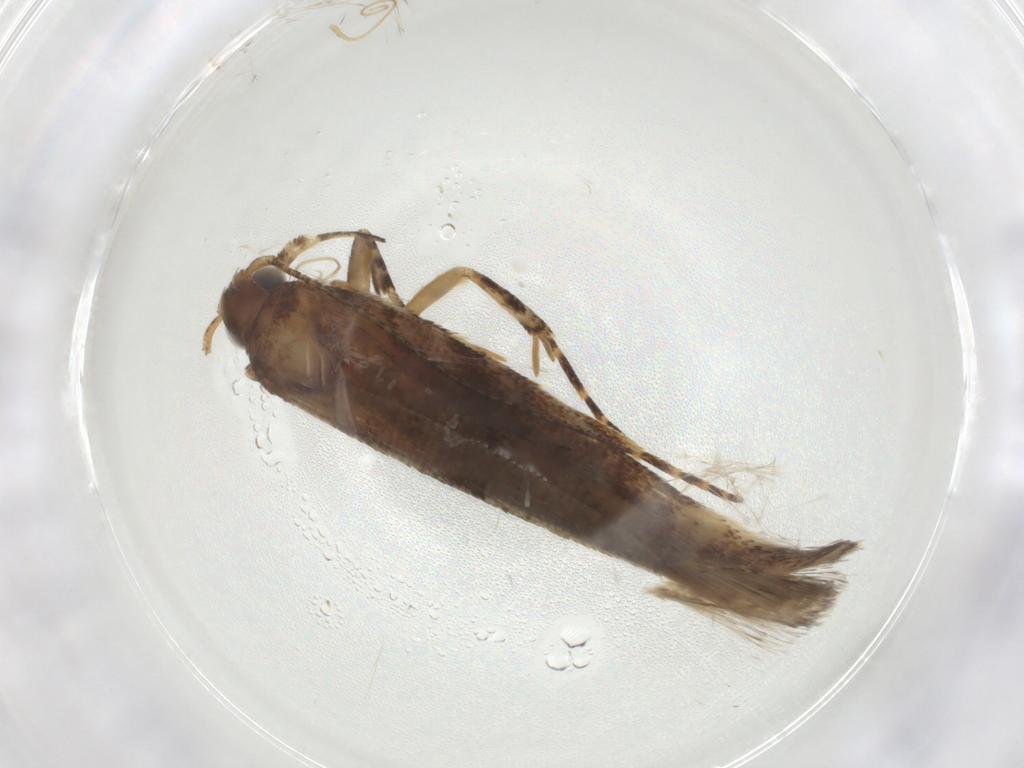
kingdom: Animalia
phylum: Arthropoda
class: Insecta
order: Lepidoptera
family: Gelechiidae
